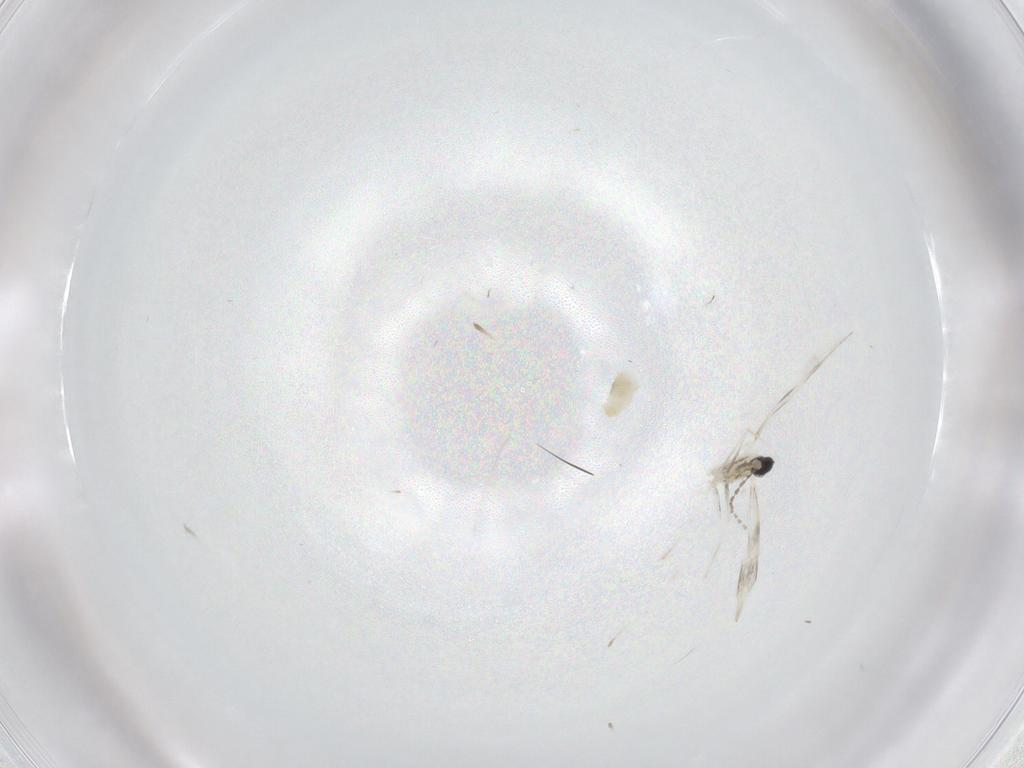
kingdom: Animalia
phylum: Arthropoda
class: Insecta
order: Diptera
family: Cecidomyiidae
